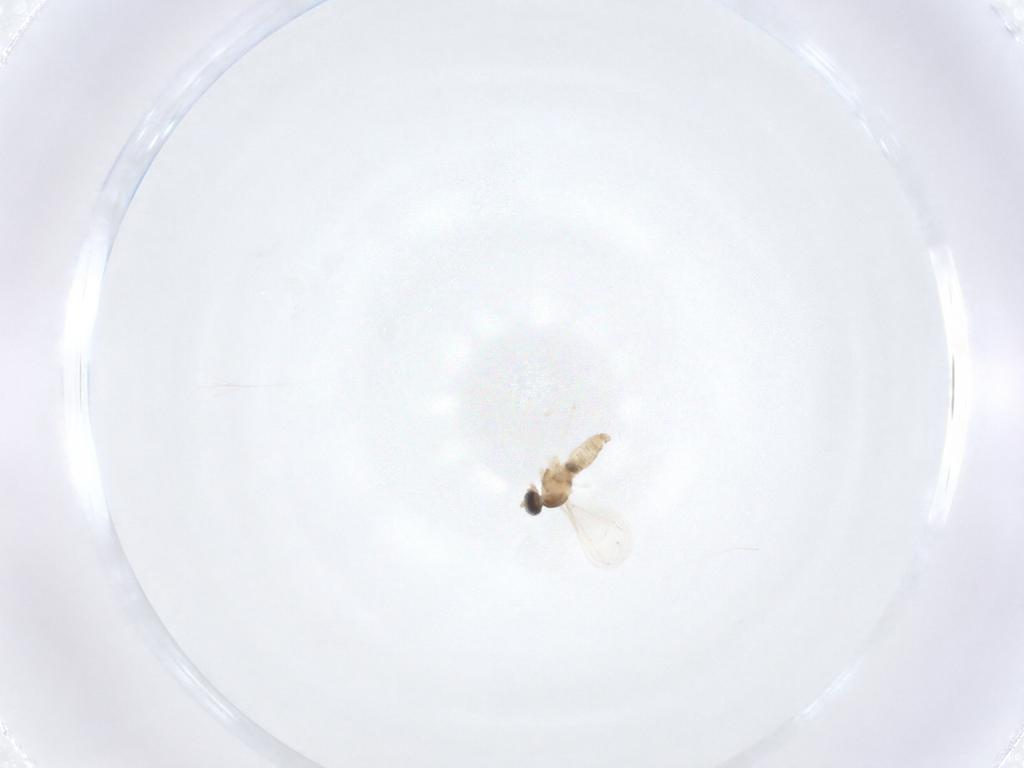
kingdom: Animalia
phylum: Arthropoda
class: Insecta
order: Diptera
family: Cecidomyiidae
